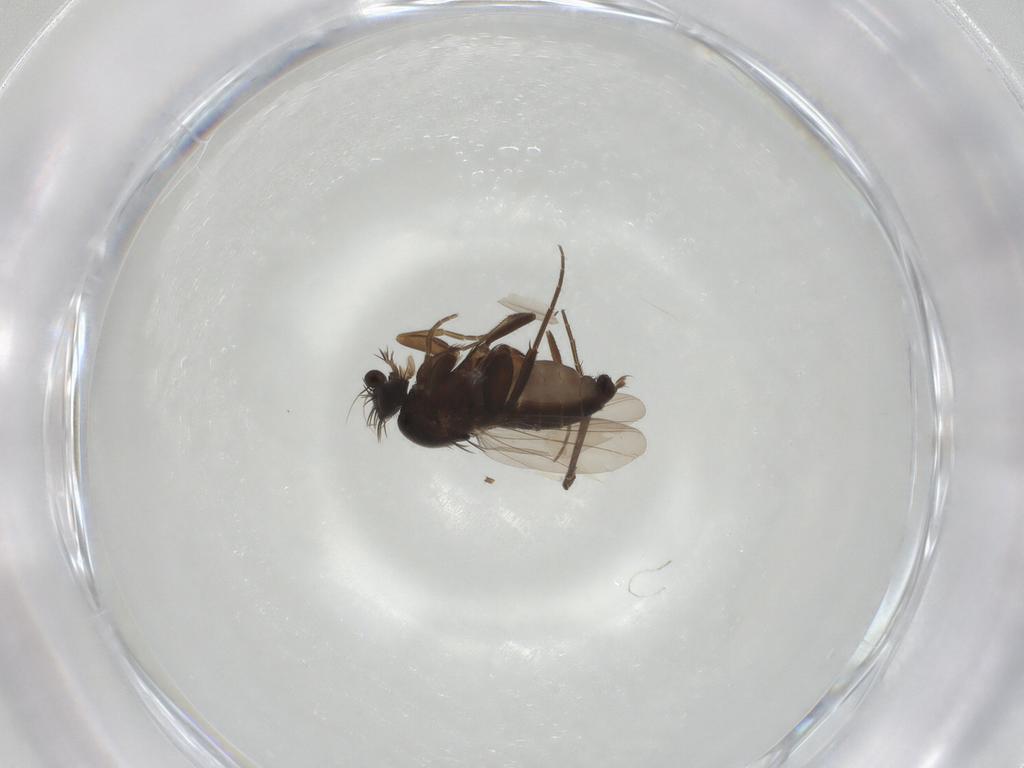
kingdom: Animalia
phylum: Arthropoda
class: Insecta
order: Diptera
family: Phoridae
